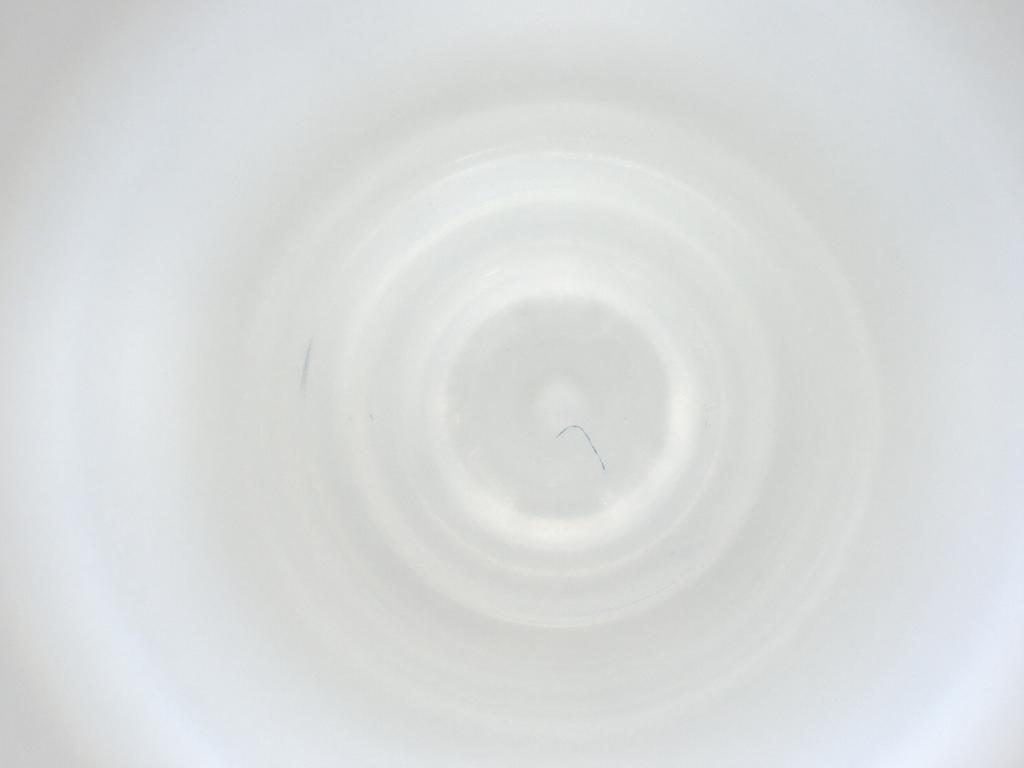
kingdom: Animalia
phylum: Arthropoda
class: Insecta
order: Diptera
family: Cecidomyiidae
